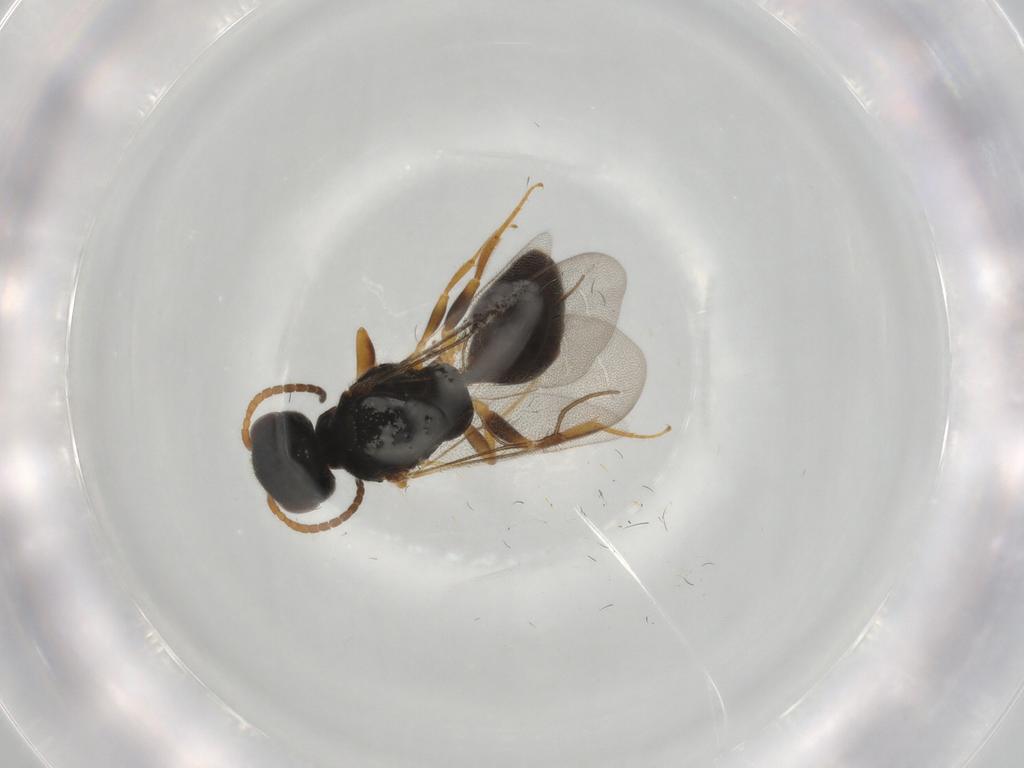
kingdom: Animalia
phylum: Arthropoda
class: Insecta
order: Hymenoptera
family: Bethylidae
